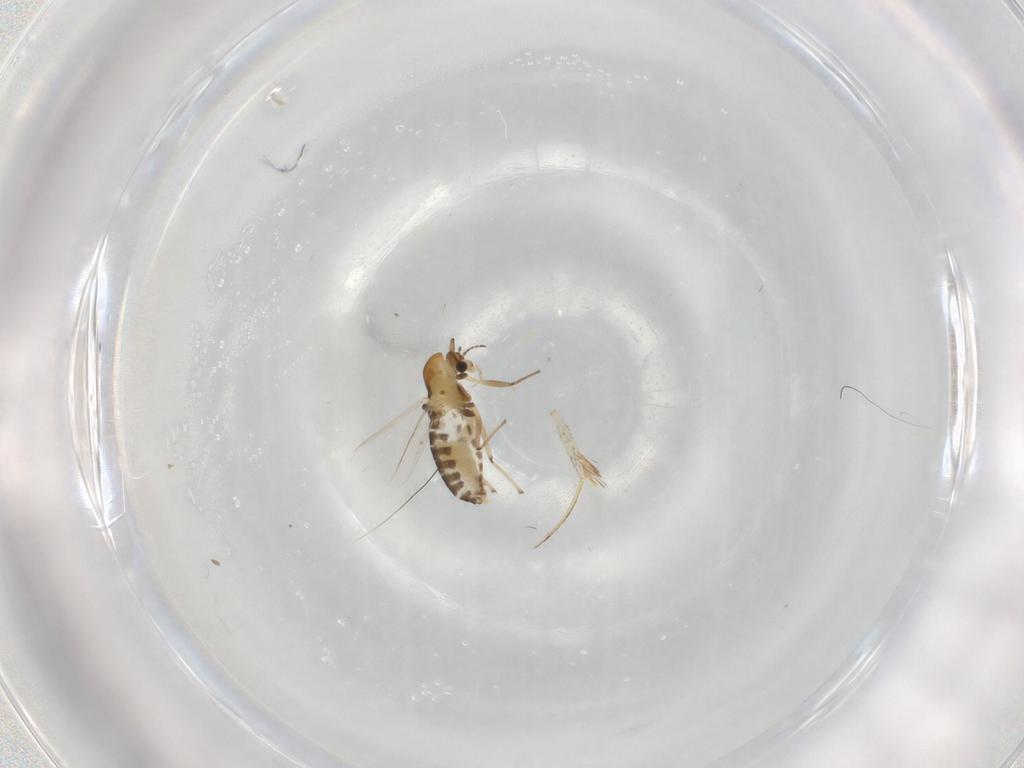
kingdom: Animalia
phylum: Arthropoda
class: Insecta
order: Diptera
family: Chironomidae
